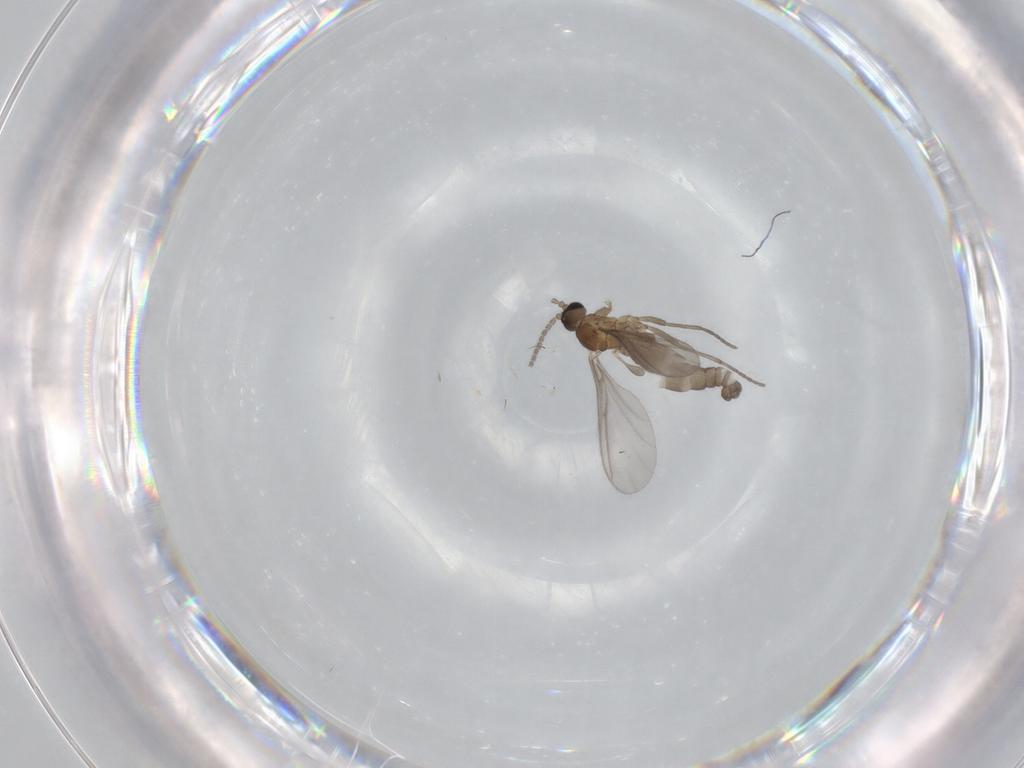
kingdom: Animalia
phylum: Arthropoda
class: Insecta
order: Diptera
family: Sciaridae
